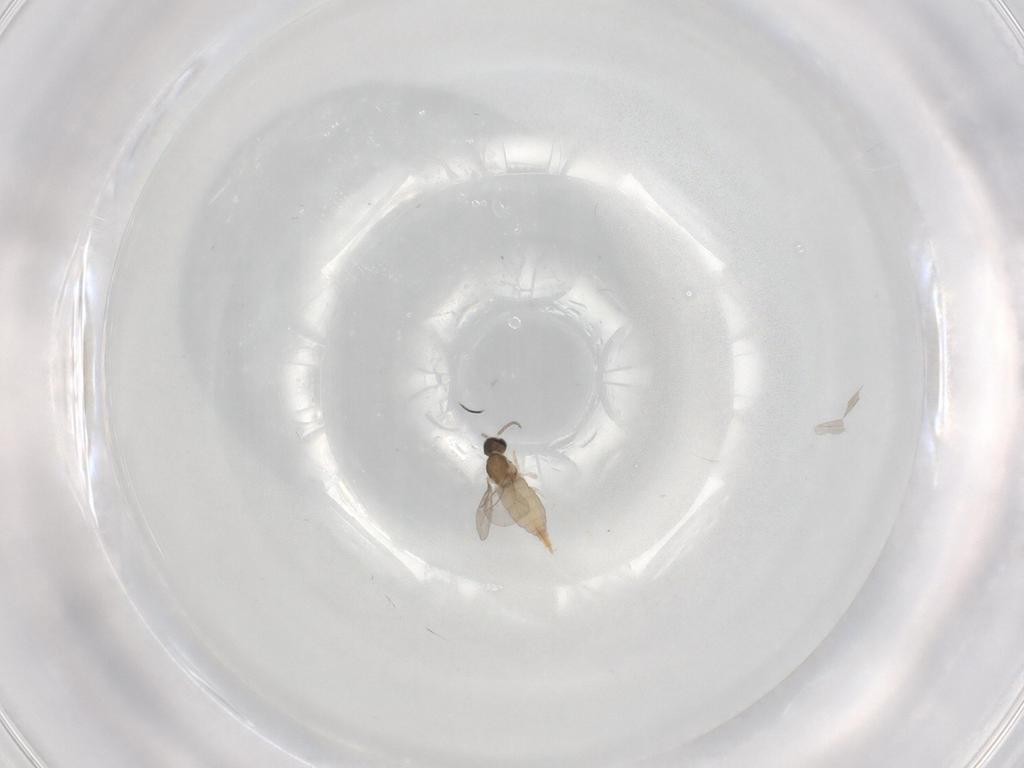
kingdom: Animalia
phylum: Arthropoda
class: Insecta
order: Diptera
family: Cecidomyiidae
